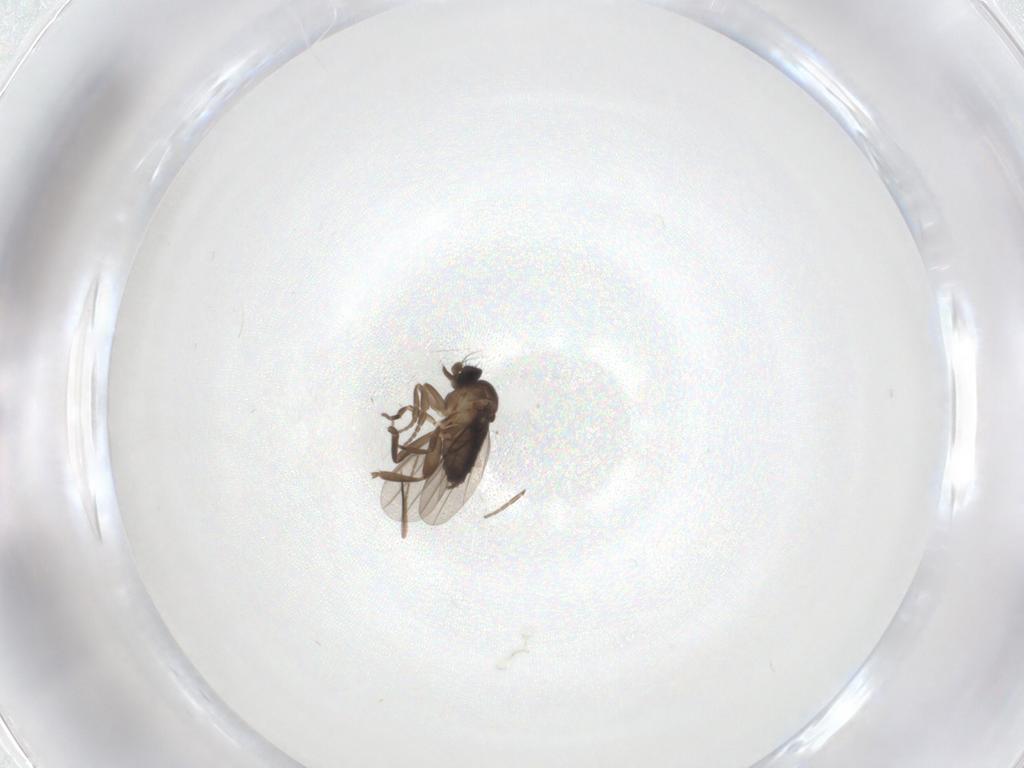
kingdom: Animalia
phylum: Arthropoda
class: Insecta
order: Diptera
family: Phoridae
